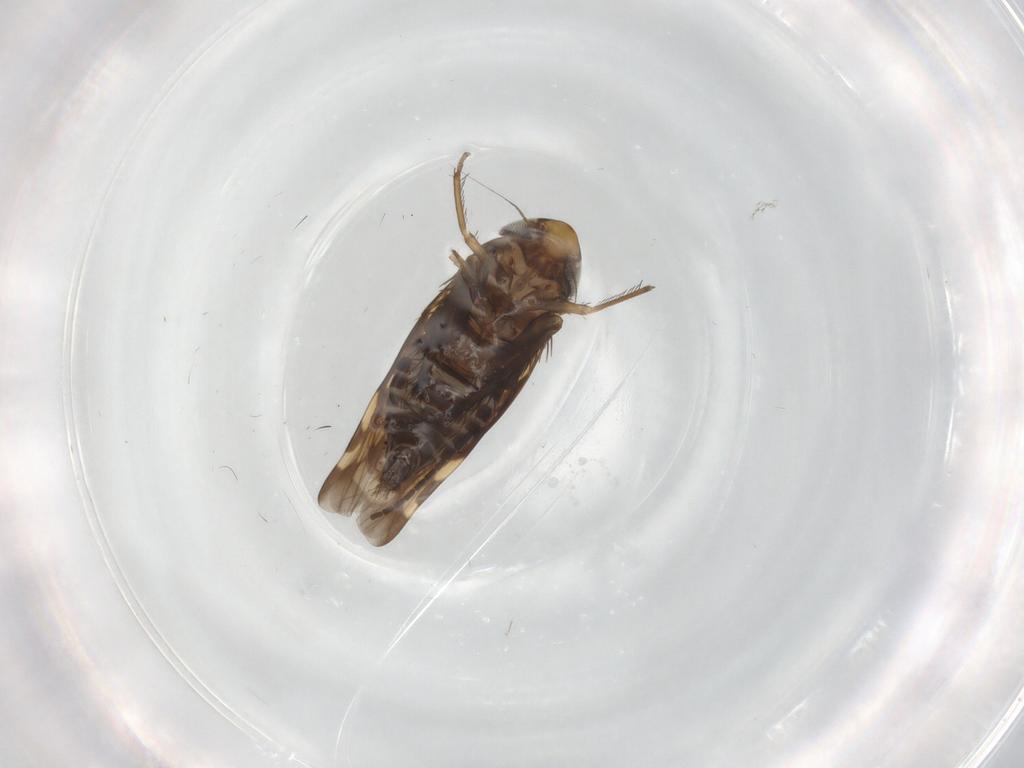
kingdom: Animalia
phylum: Arthropoda
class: Insecta
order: Hemiptera
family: Cicadellidae
